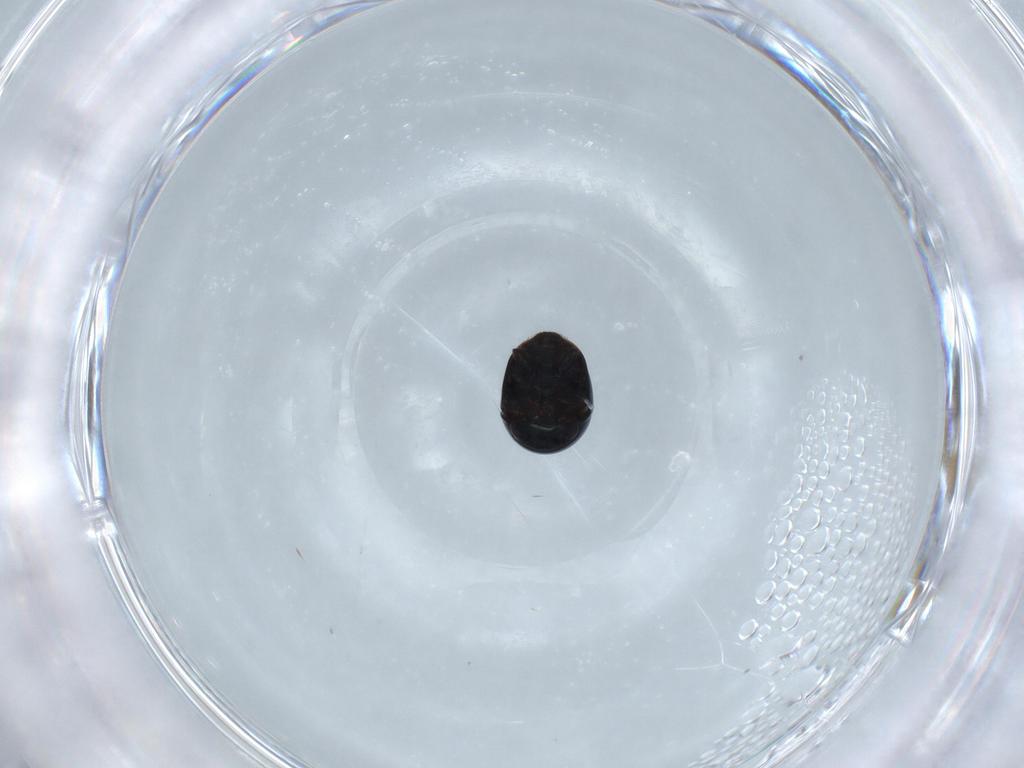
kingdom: Animalia
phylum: Arthropoda
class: Insecta
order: Coleoptera
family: Cybocephalidae
